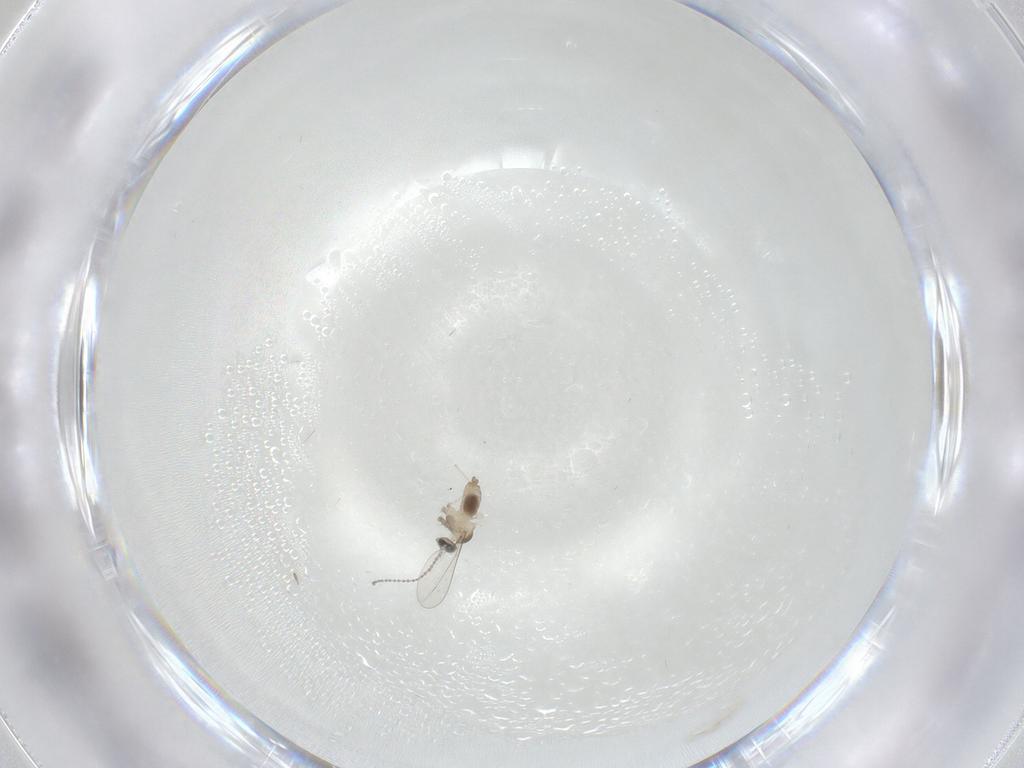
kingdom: Animalia
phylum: Arthropoda
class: Insecta
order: Diptera
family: Cecidomyiidae
